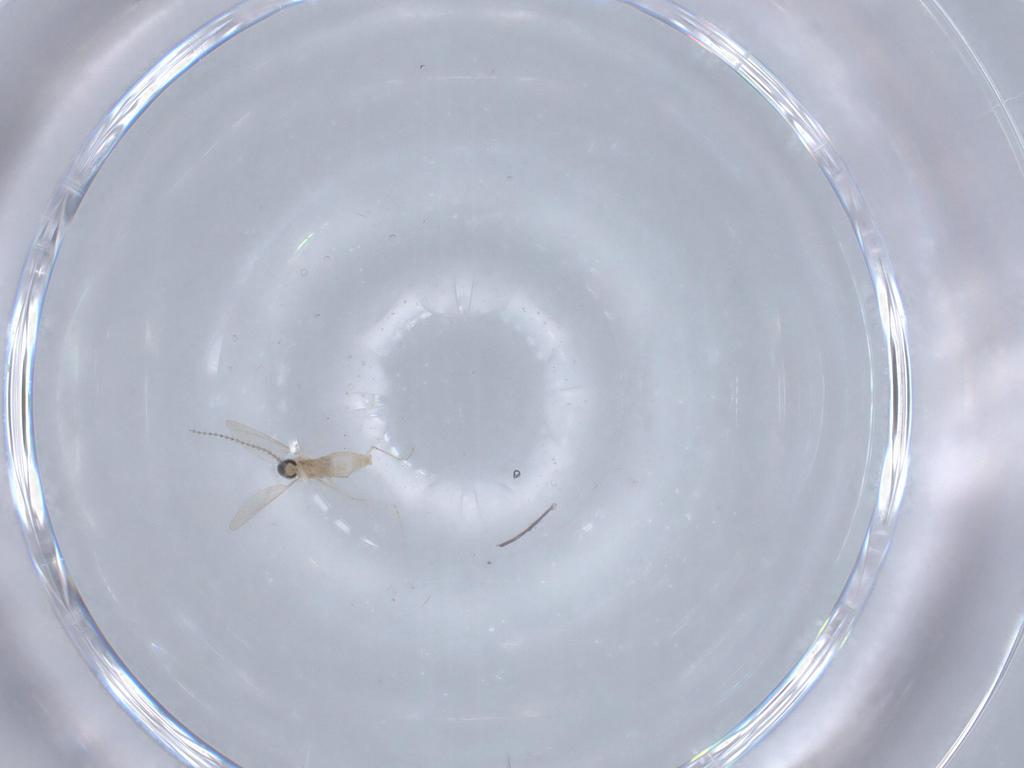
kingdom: Animalia
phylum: Arthropoda
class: Insecta
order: Diptera
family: Cecidomyiidae
